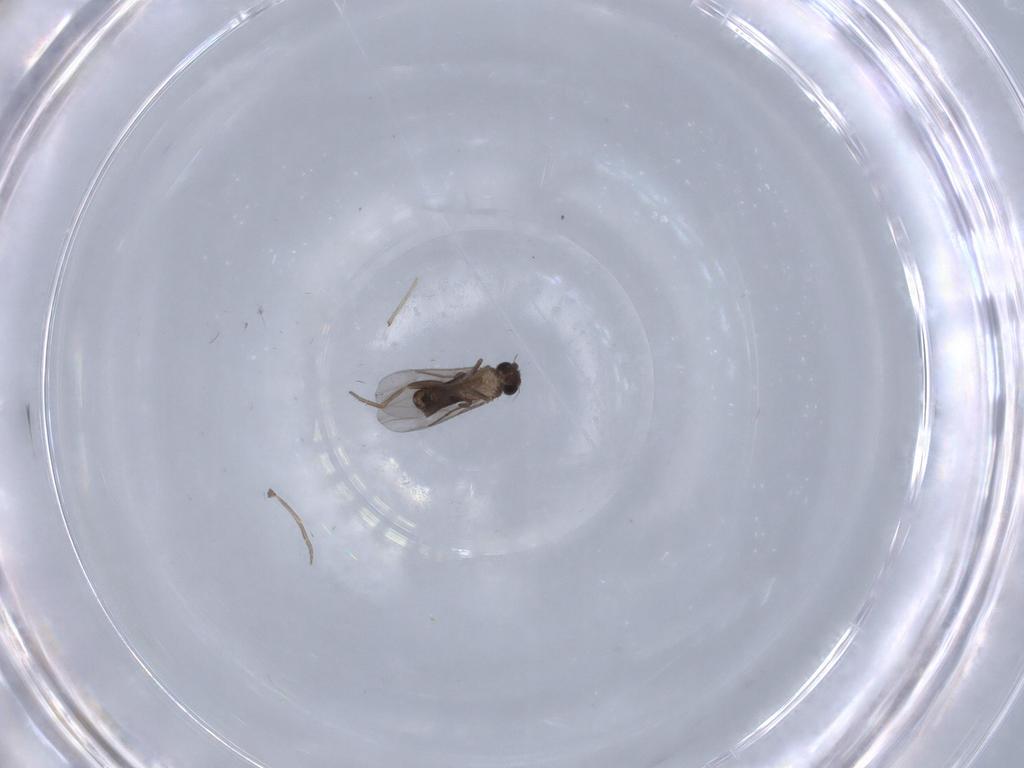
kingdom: Animalia
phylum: Arthropoda
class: Insecta
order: Diptera
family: Chironomidae
